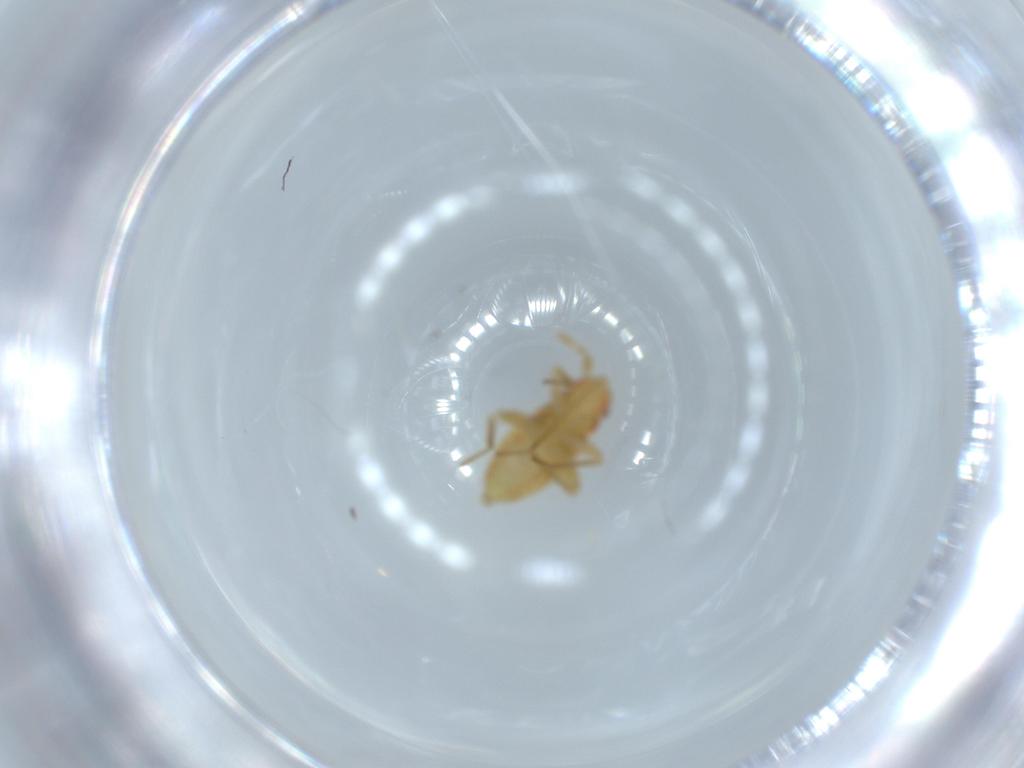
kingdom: Animalia
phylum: Arthropoda
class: Insecta
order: Hemiptera
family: Miridae
